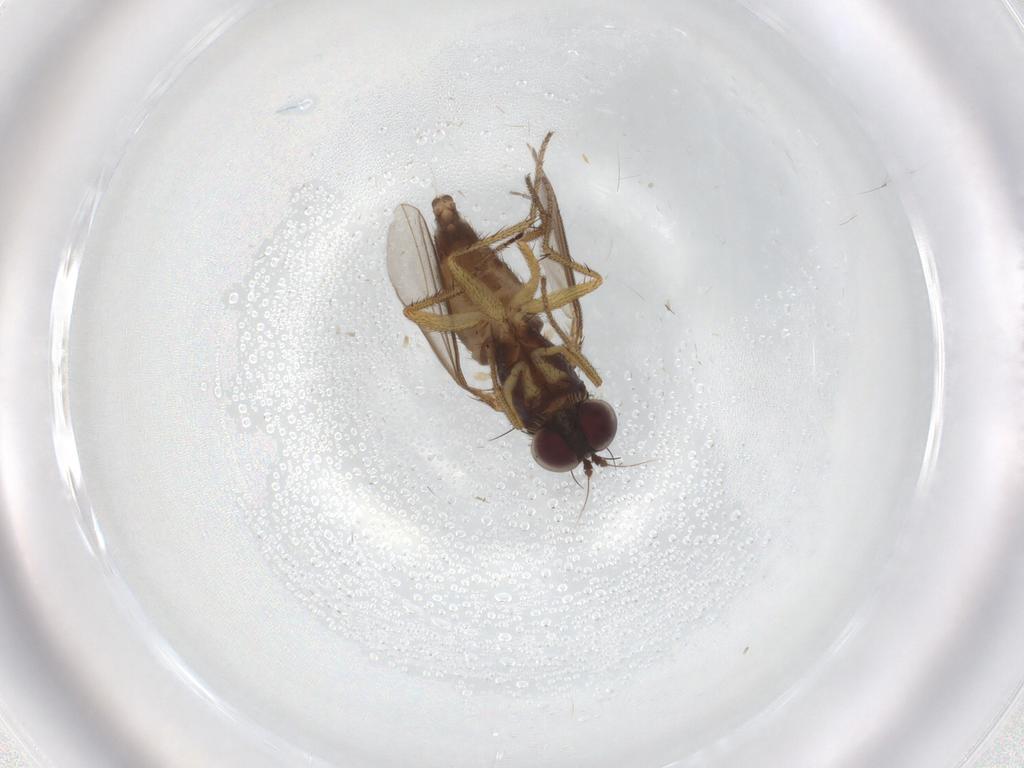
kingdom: Animalia
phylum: Arthropoda
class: Insecta
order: Diptera
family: Dolichopodidae
